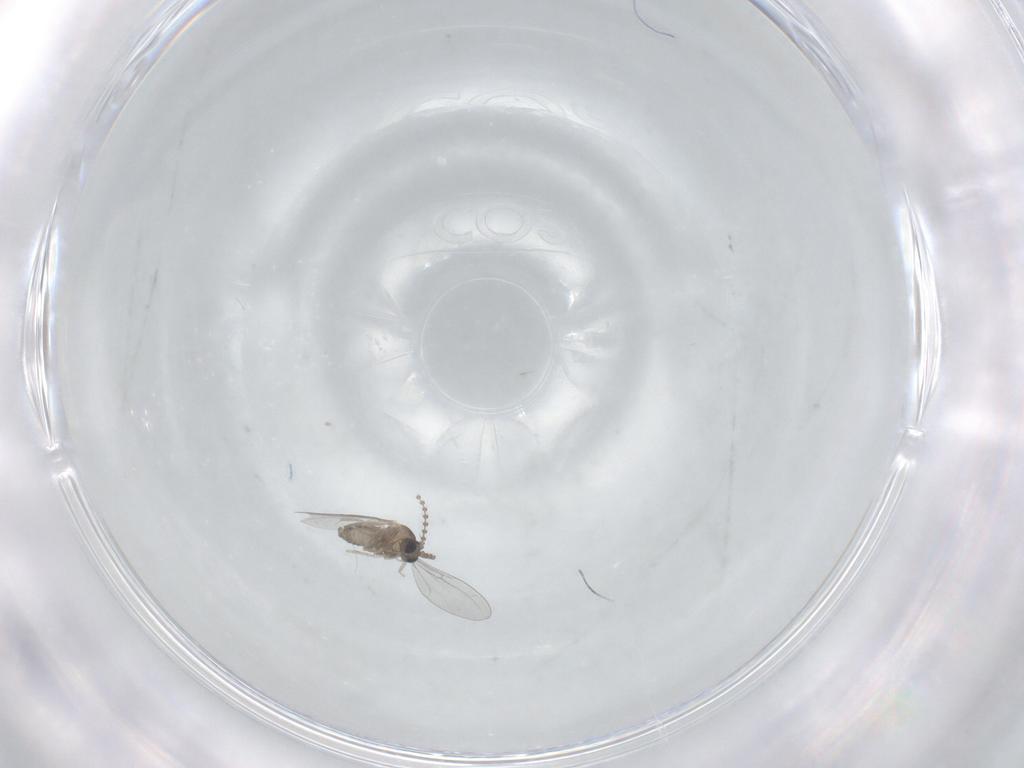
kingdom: Animalia
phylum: Arthropoda
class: Insecta
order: Diptera
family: Cecidomyiidae
